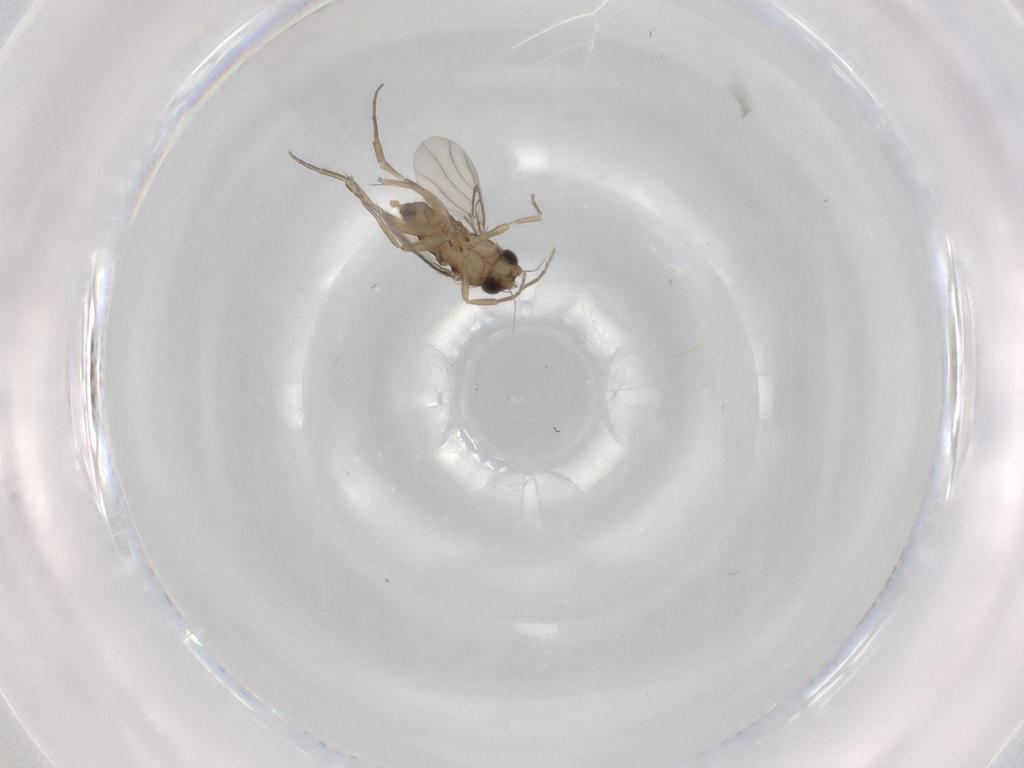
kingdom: Animalia
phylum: Arthropoda
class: Insecta
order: Diptera
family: Phoridae
